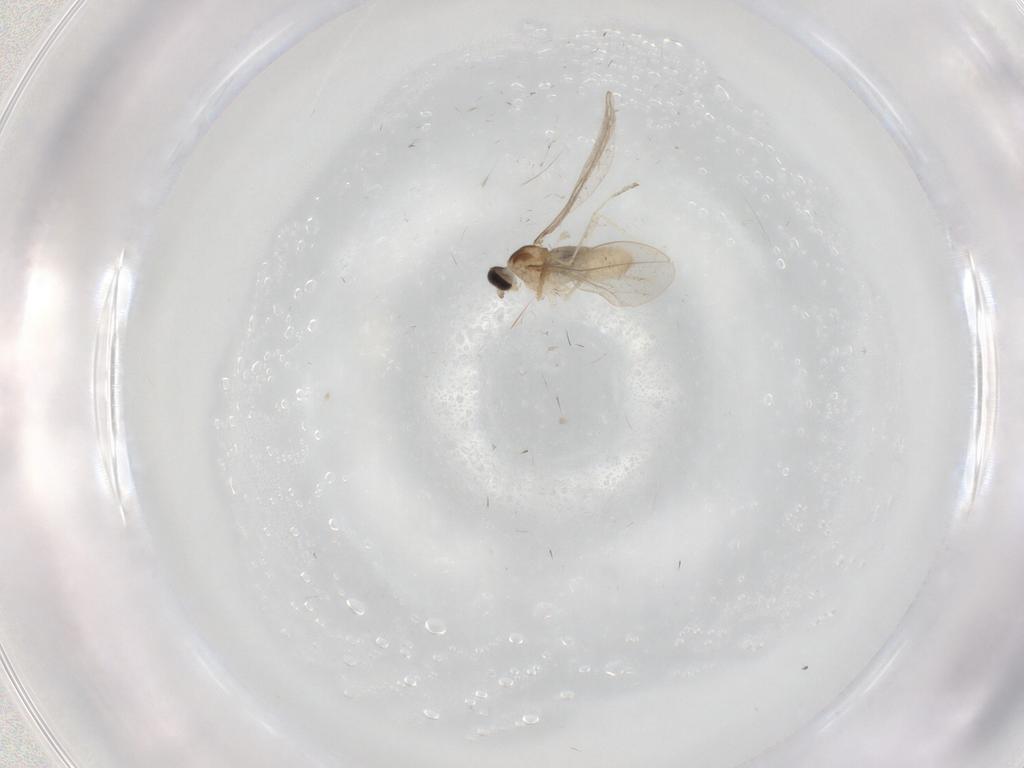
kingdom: Animalia
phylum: Arthropoda
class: Insecta
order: Diptera
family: Cecidomyiidae
